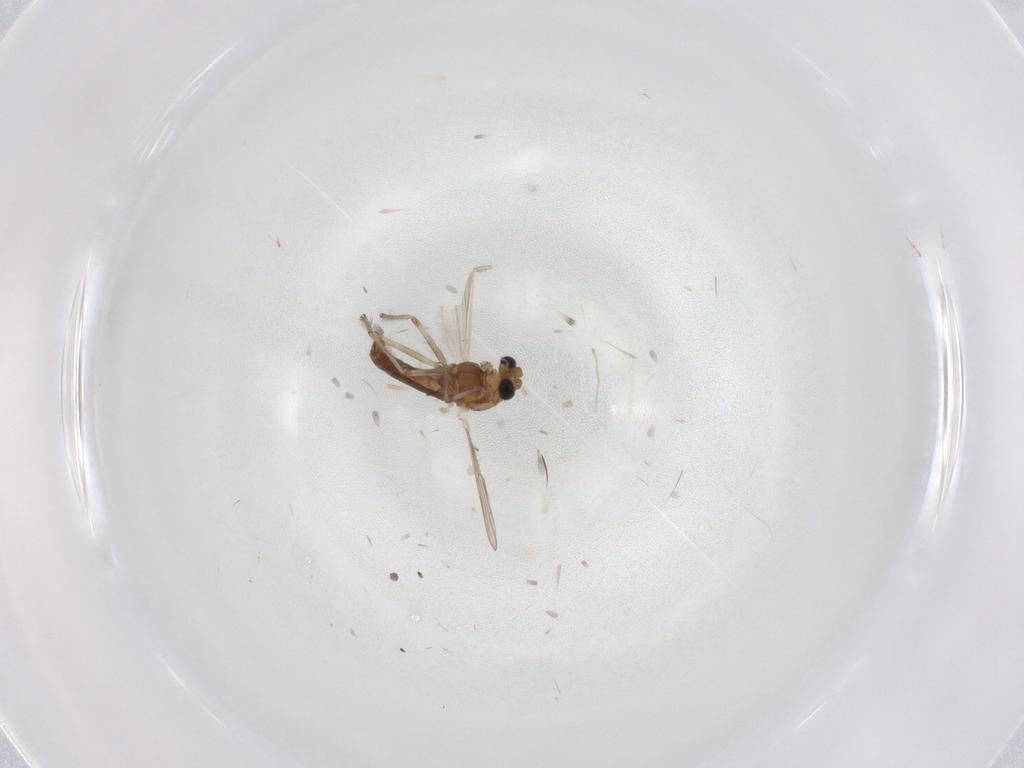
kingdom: Animalia
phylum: Arthropoda
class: Insecta
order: Diptera
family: Chironomidae
